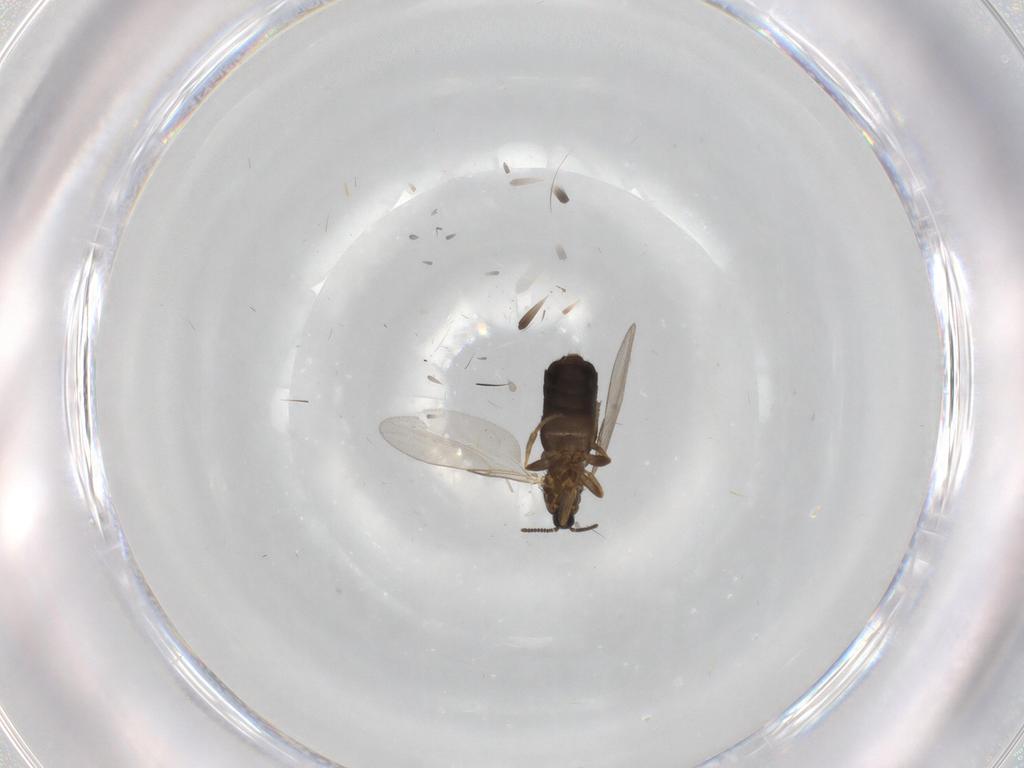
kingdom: Animalia
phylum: Arthropoda
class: Insecta
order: Diptera
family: Scatopsidae
